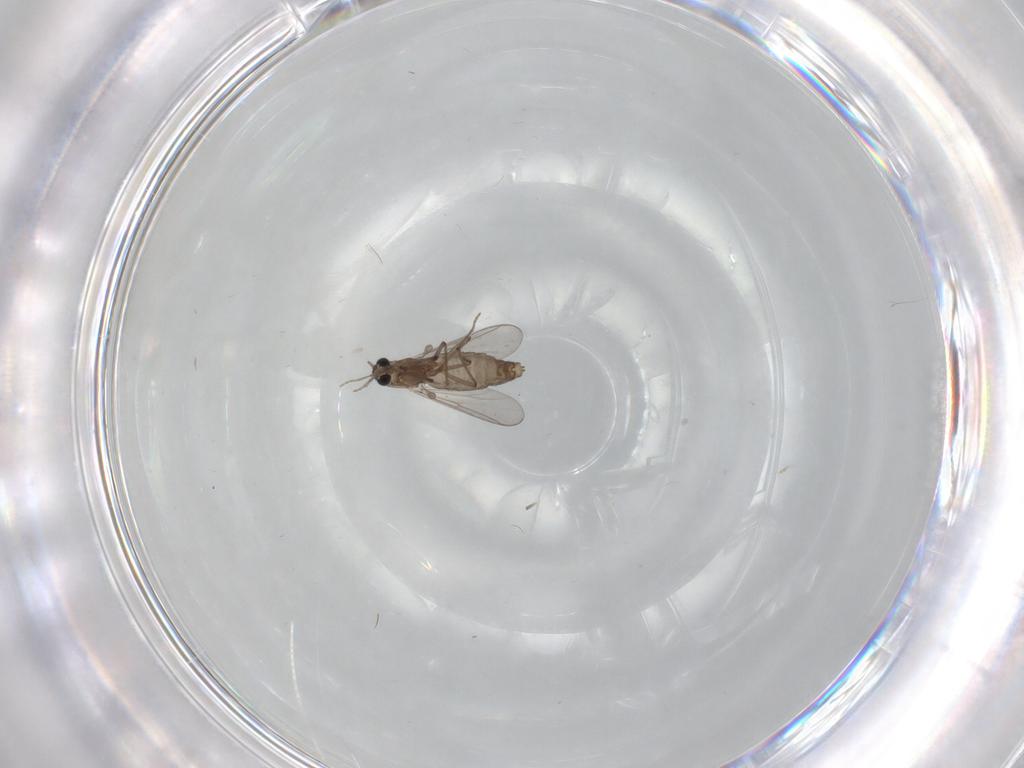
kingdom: Animalia
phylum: Arthropoda
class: Insecta
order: Diptera
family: Chironomidae
